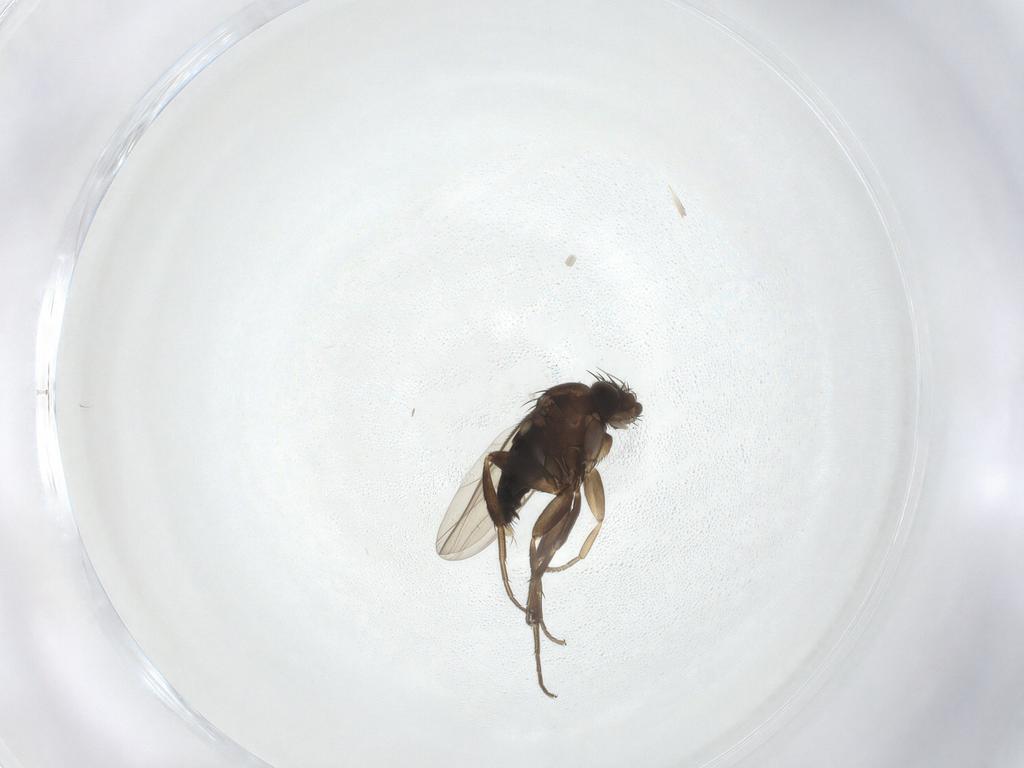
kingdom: Animalia
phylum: Arthropoda
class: Insecta
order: Diptera
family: Phoridae
